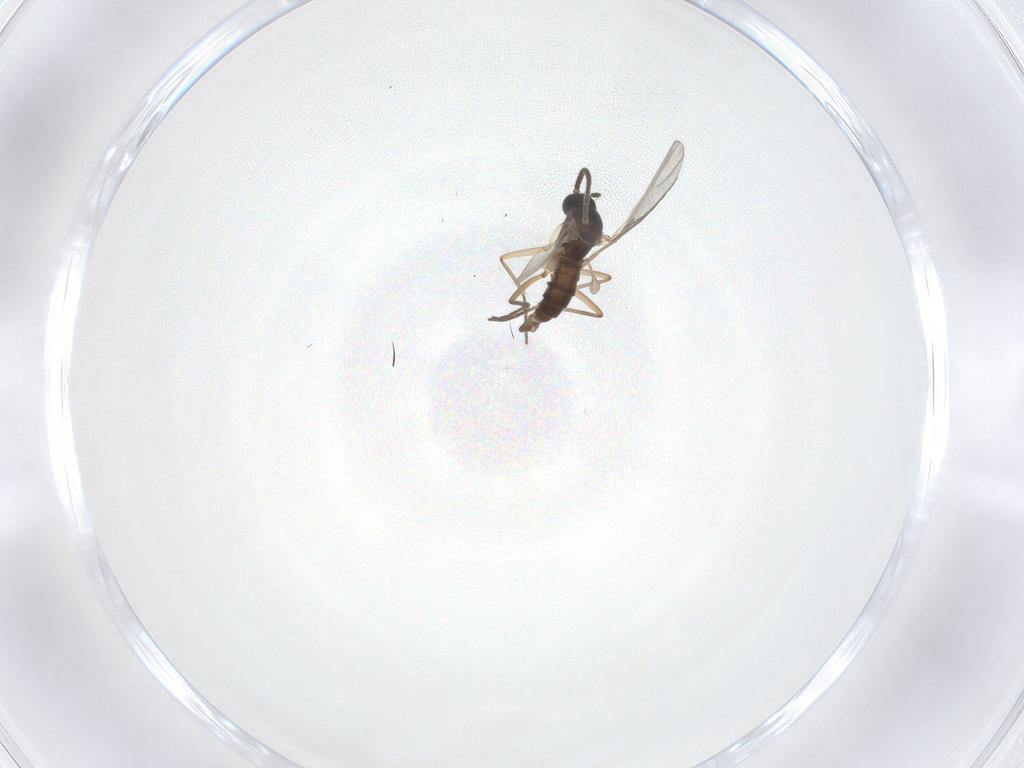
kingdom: Animalia
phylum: Arthropoda
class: Insecta
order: Diptera
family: Sciaridae
